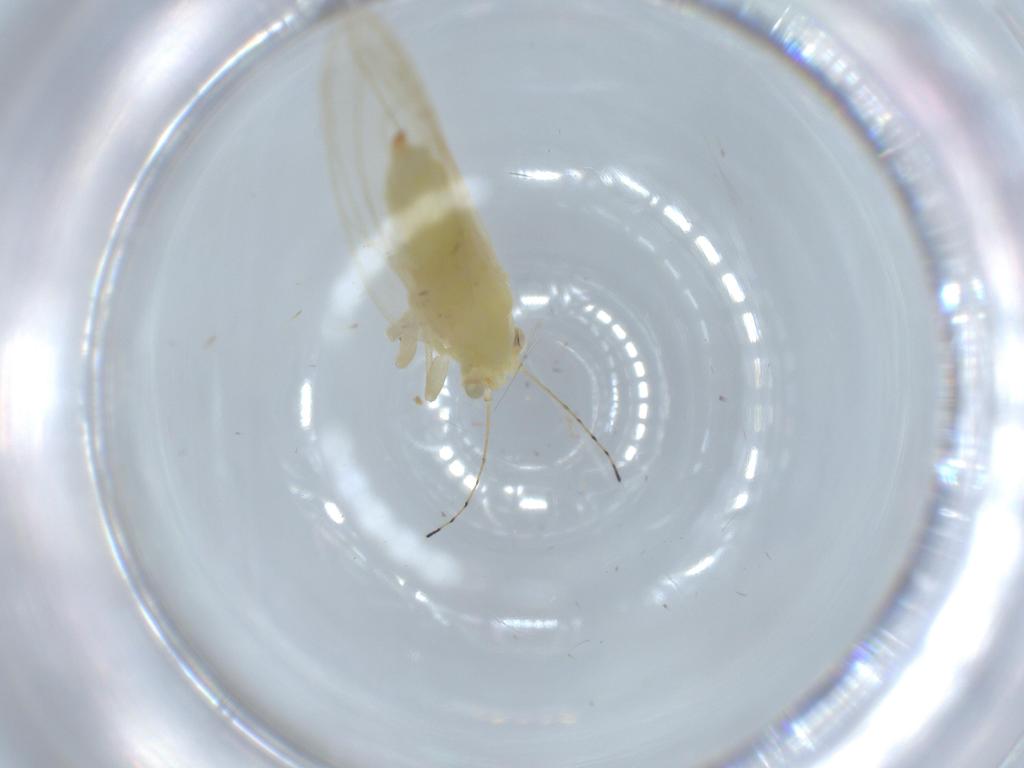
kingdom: Animalia
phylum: Arthropoda
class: Insecta
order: Hemiptera
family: Triozidae
